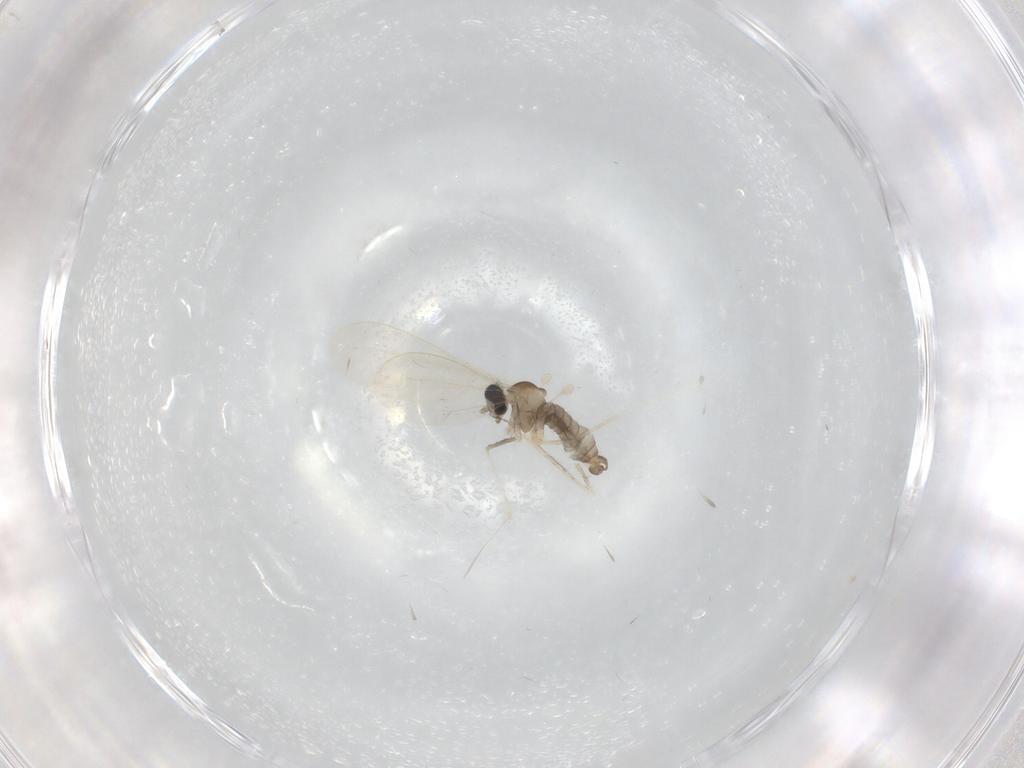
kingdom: Animalia
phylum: Arthropoda
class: Insecta
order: Diptera
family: Cecidomyiidae
